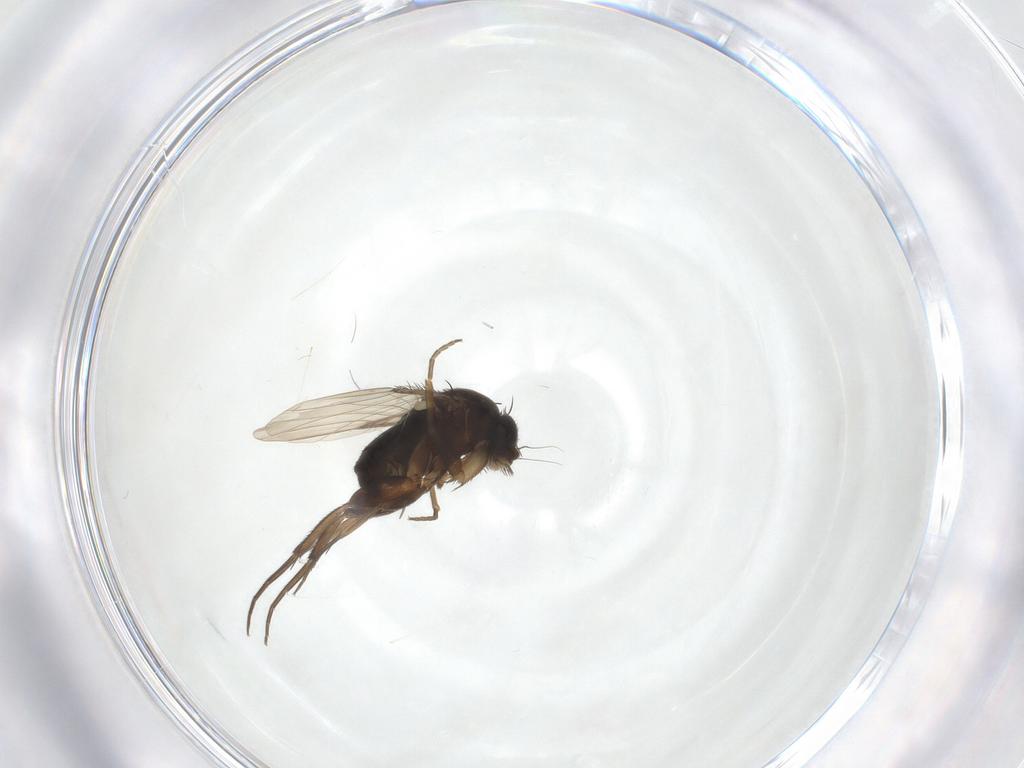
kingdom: Animalia
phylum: Arthropoda
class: Insecta
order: Diptera
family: Phoridae
